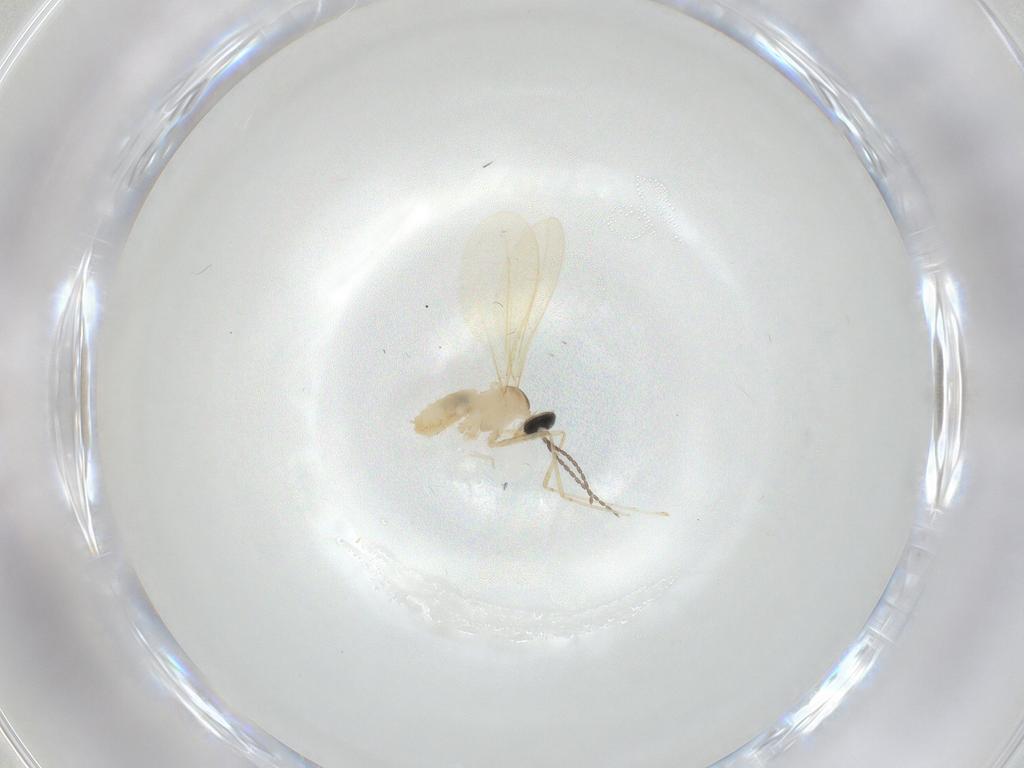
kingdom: Animalia
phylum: Arthropoda
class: Insecta
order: Diptera
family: Cecidomyiidae
